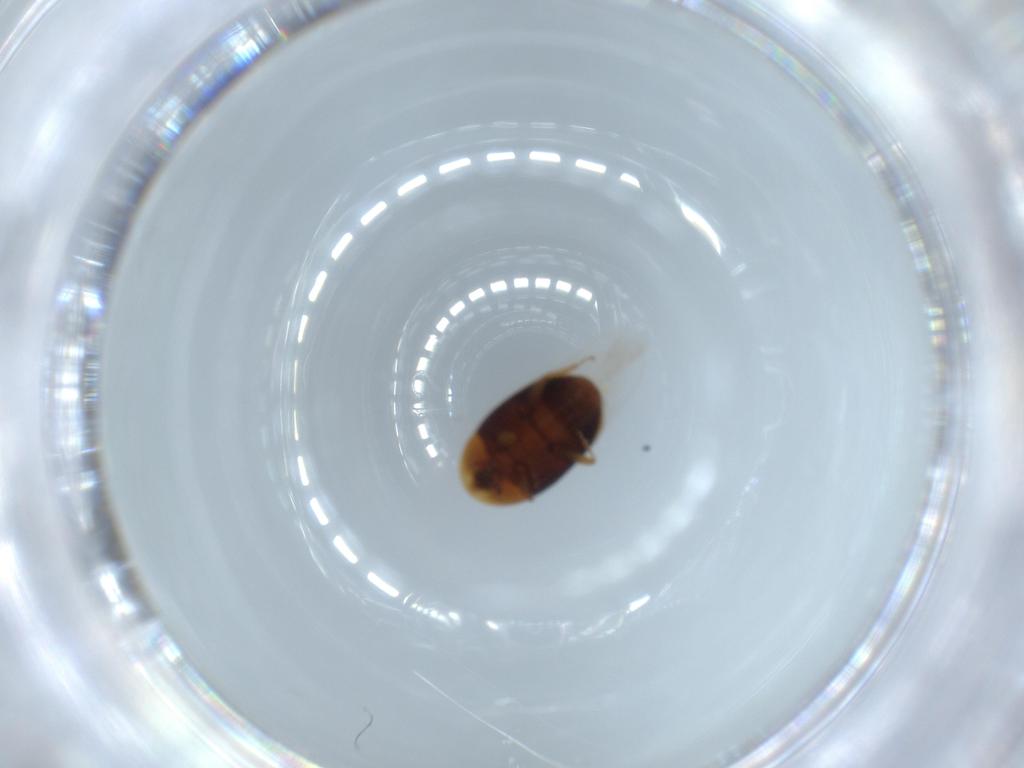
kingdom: Animalia
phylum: Arthropoda
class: Insecta
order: Coleoptera
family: Corylophidae
